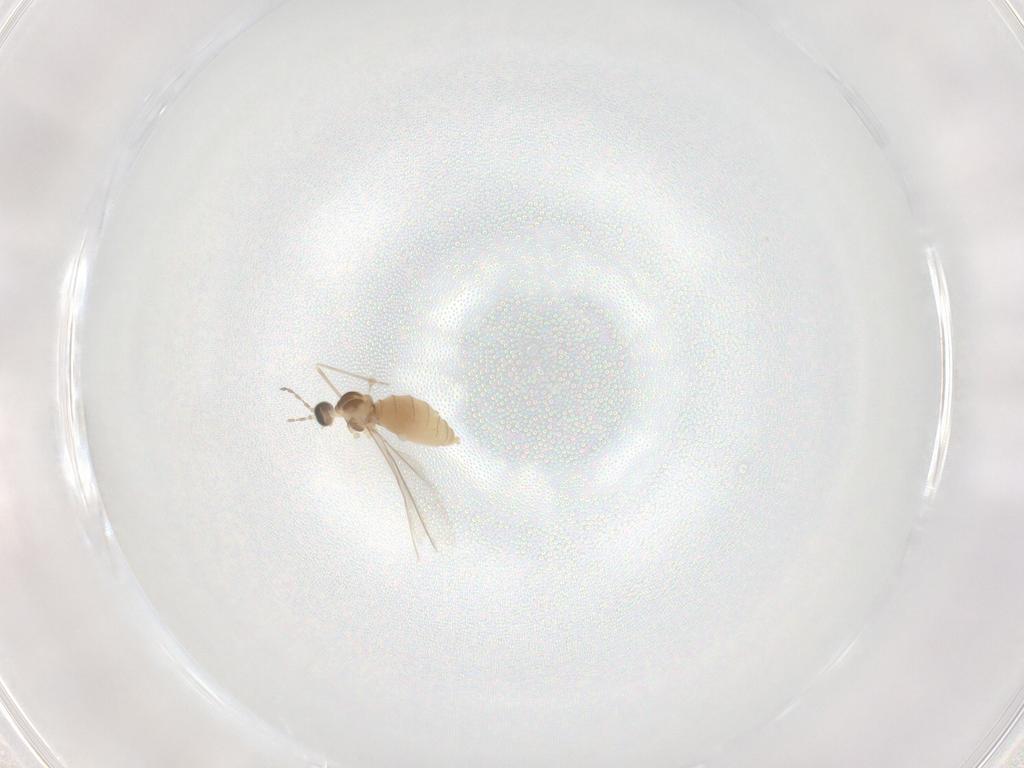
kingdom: Animalia
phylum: Arthropoda
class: Insecta
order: Diptera
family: Cecidomyiidae
